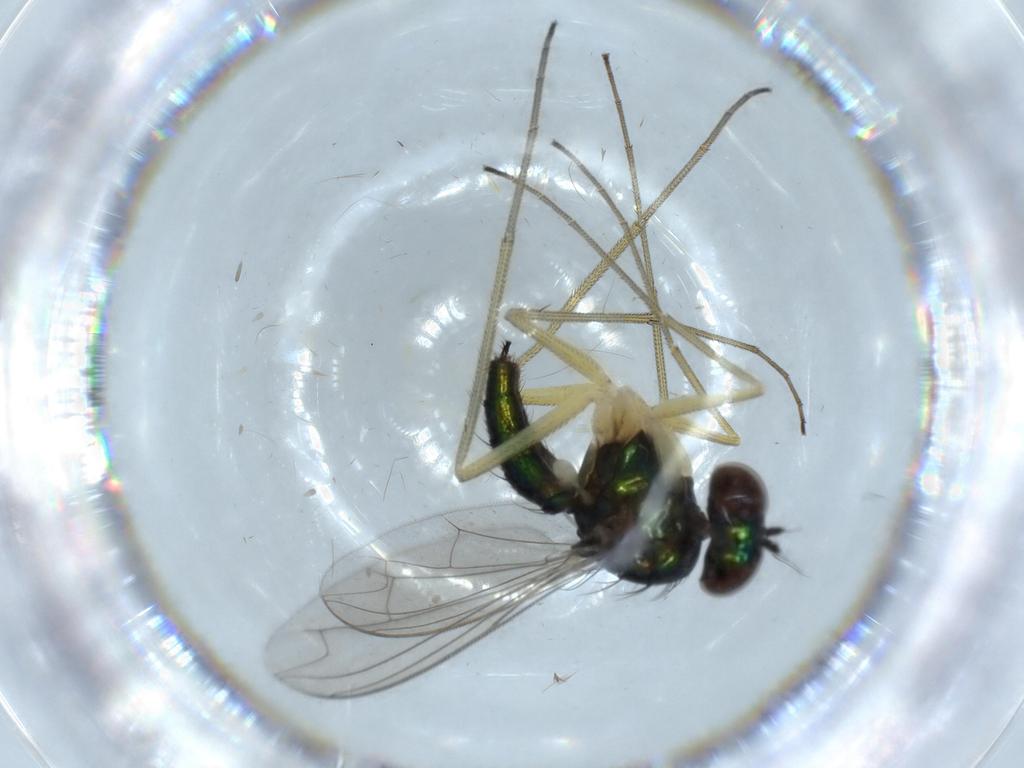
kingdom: Animalia
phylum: Arthropoda
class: Insecta
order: Diptera
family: Dolichopodidae
